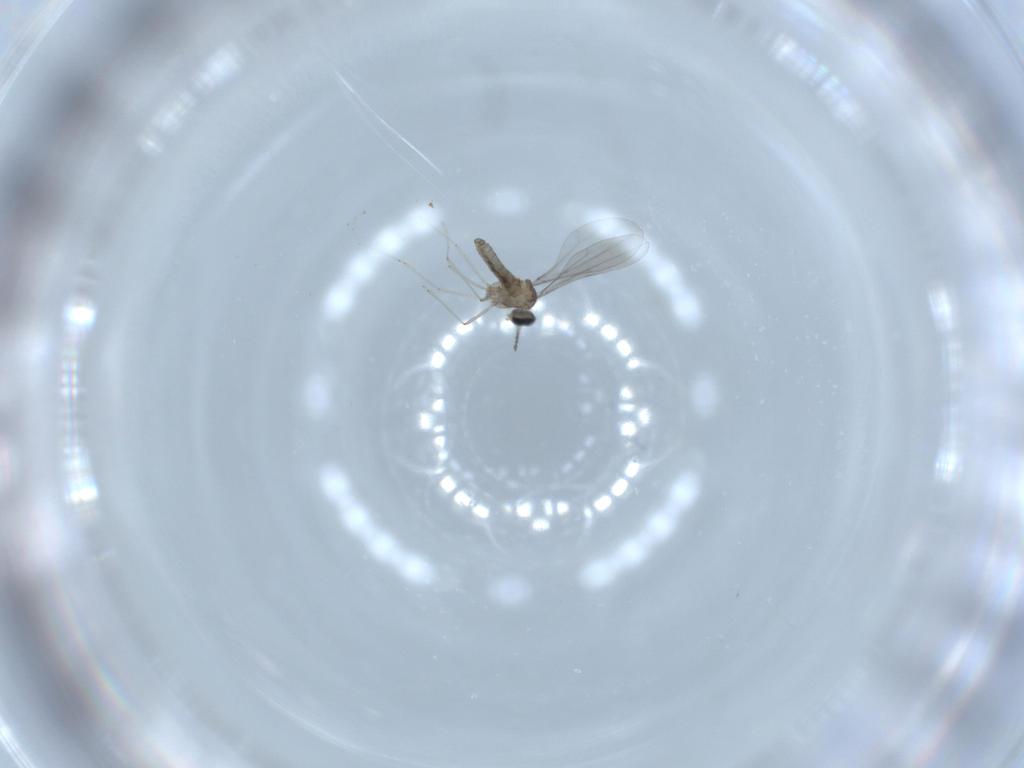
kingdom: Animalia
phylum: Arthropoda
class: Insecta
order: Diptera
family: Cecidomyiidae
